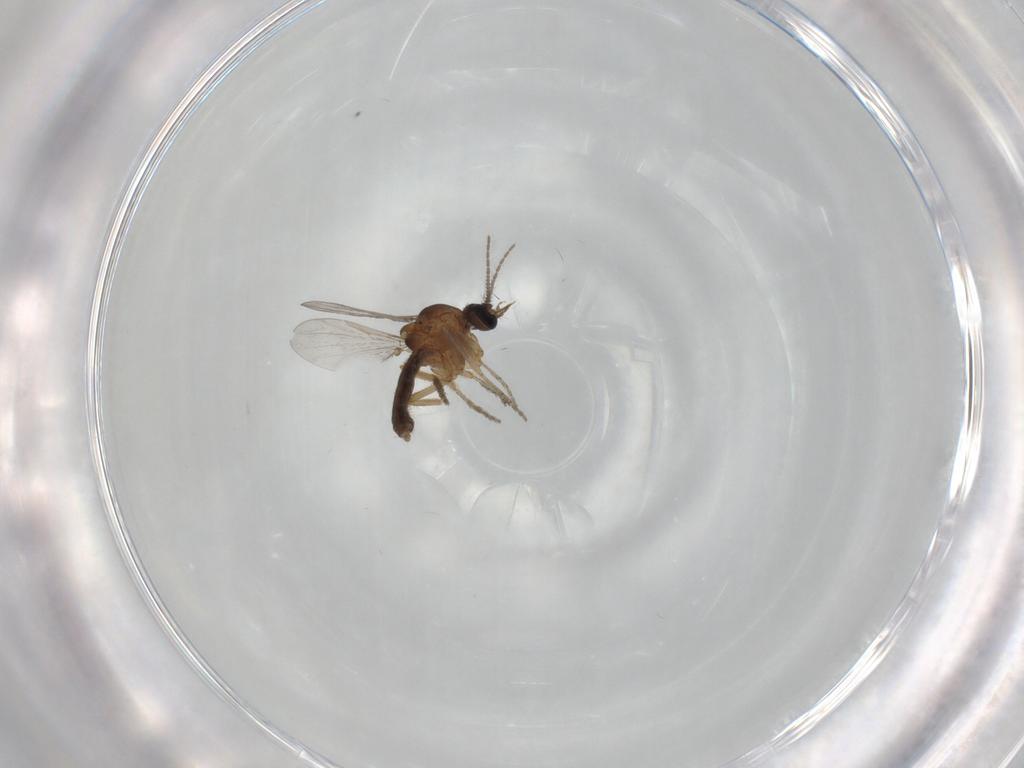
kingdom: Animalia
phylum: Arthropoda
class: Insecta
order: Diptera
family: Ceratopogonidae
